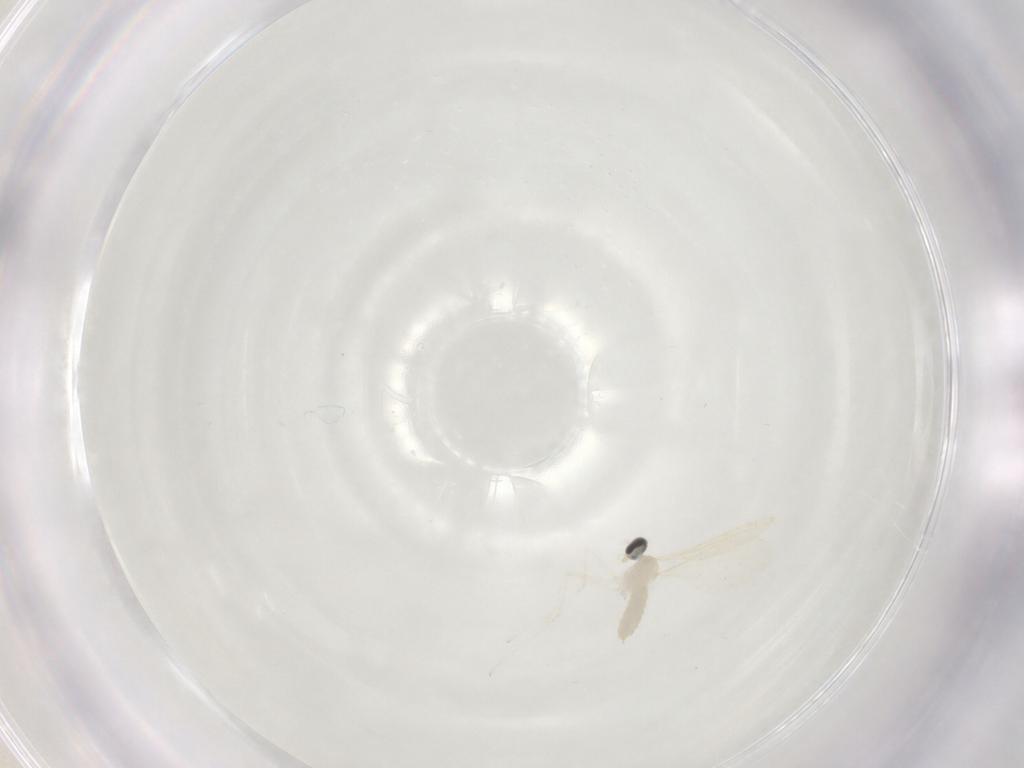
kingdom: Animalia
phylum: Arthropoda
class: Insecta
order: Diptera
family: Cecidomyiidae
